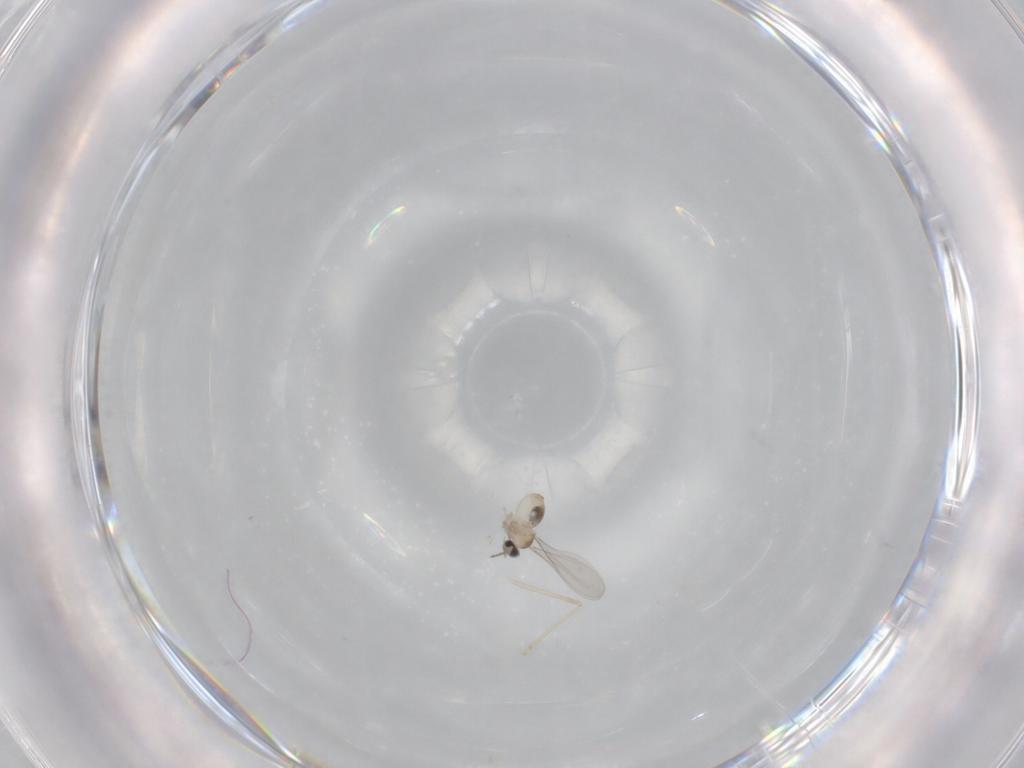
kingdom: Animalia
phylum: Arthropoda
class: Insecta
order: Diptera
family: Cecidomyiidae
